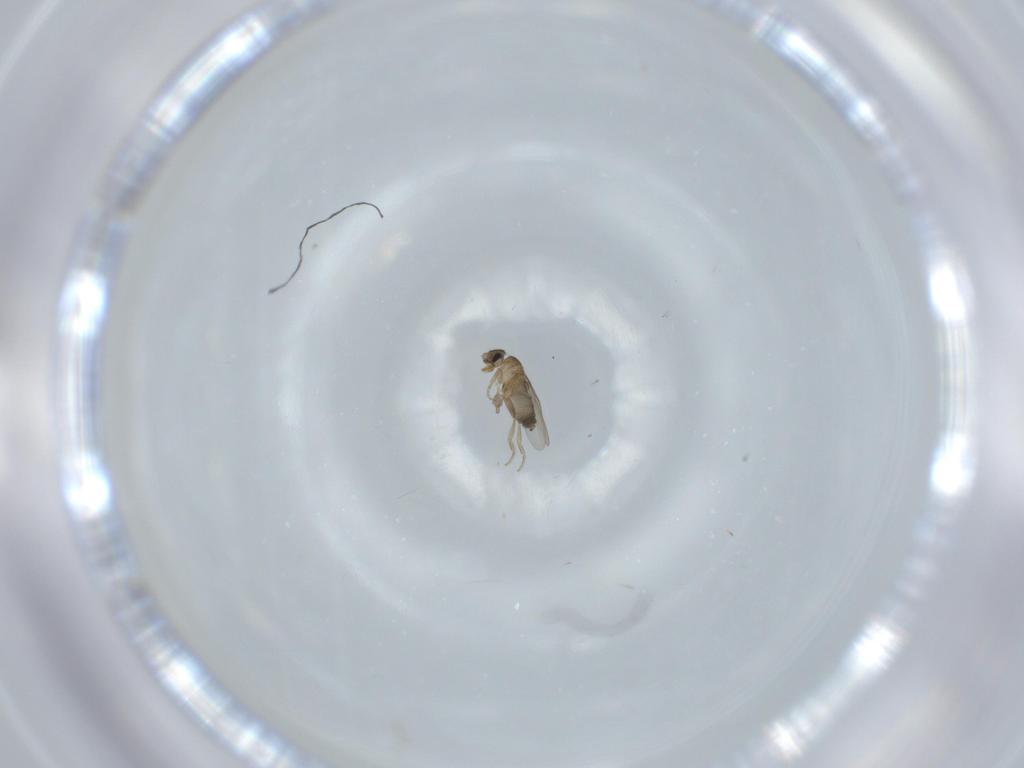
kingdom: Animalia
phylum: Arthropoda
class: Insecta
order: Diptera
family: Phoridae
